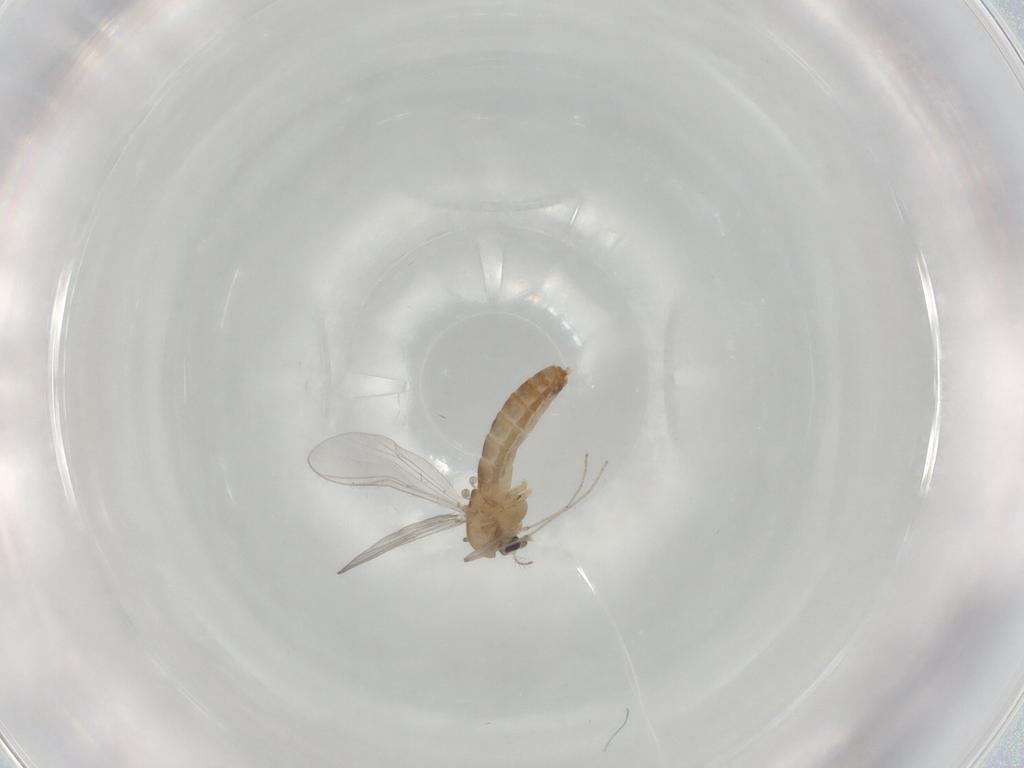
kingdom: Animalia
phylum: Arthropoda
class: Insecta
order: Diptera
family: Chironomidae
